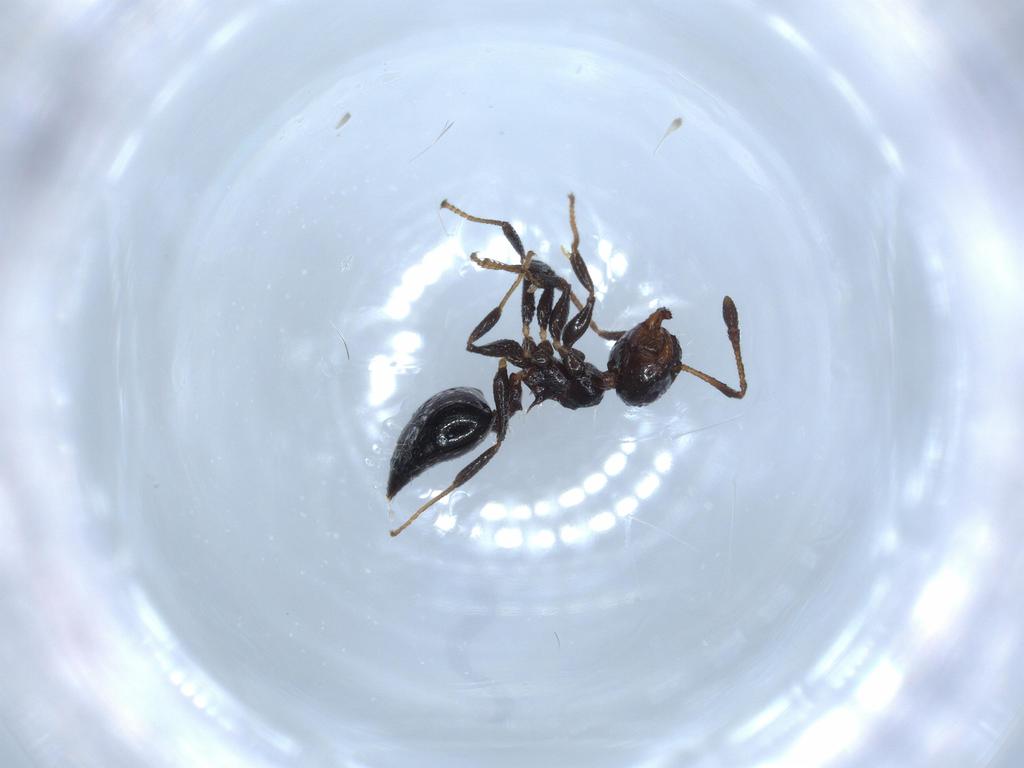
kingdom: Animalia
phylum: Arthropoda
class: Insecta
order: Hymenoptera
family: Formicidae
